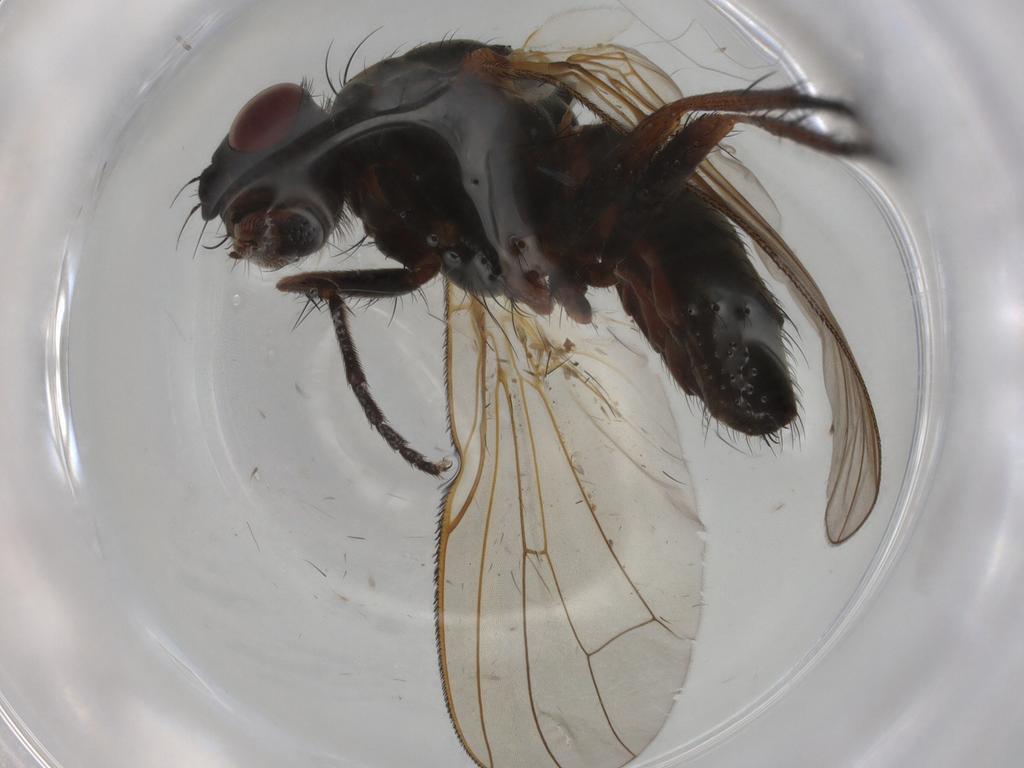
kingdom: Animalia
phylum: Arthropoda
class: Insecta
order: Diptera
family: Anthomyiidae
